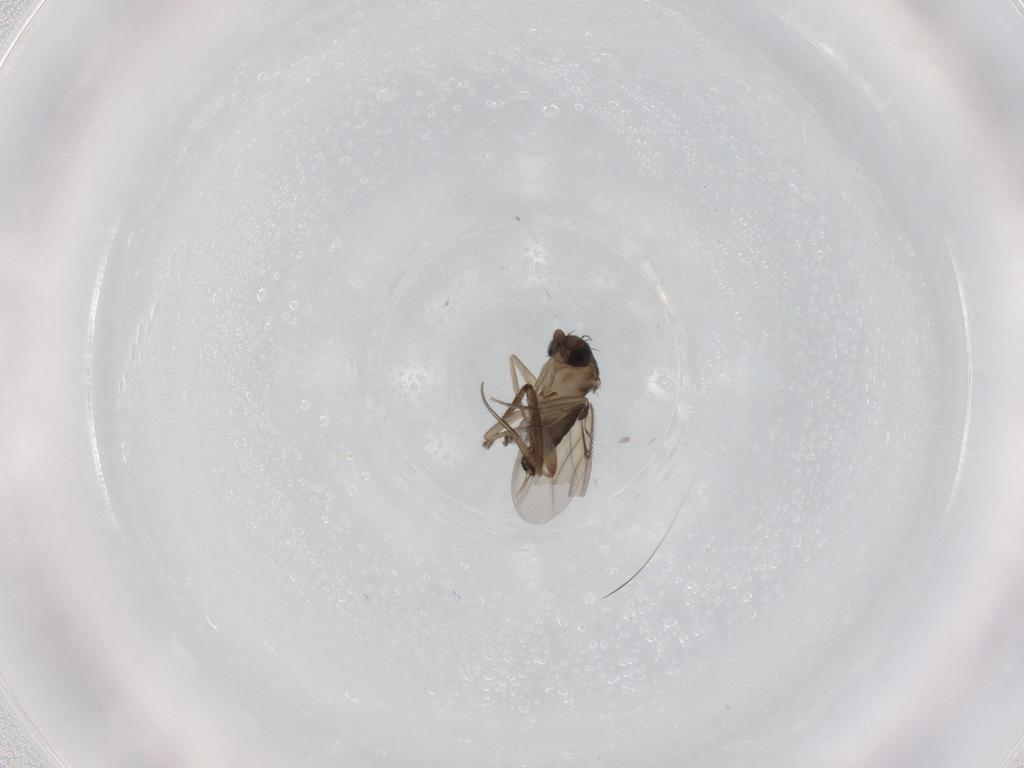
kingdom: Animalia
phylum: Arthropoda
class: Insecta
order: Diptera
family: Sciaridae
